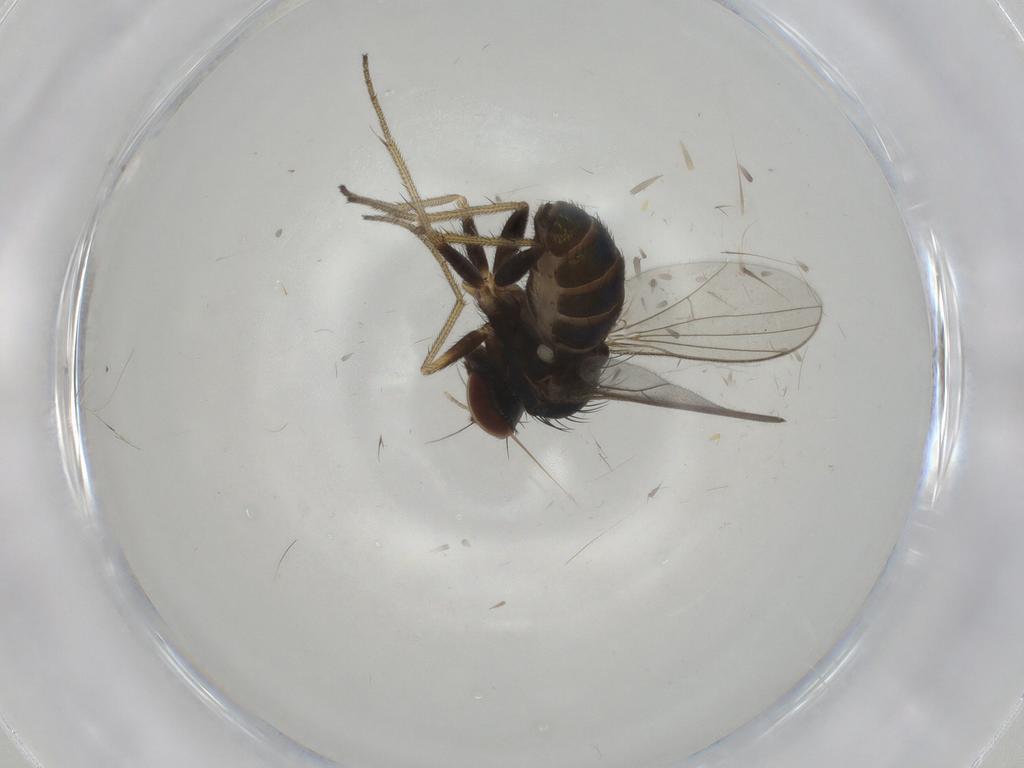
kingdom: Animalia
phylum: Arthropoda
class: Insecta
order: Diptera
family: Dolichopodidae
